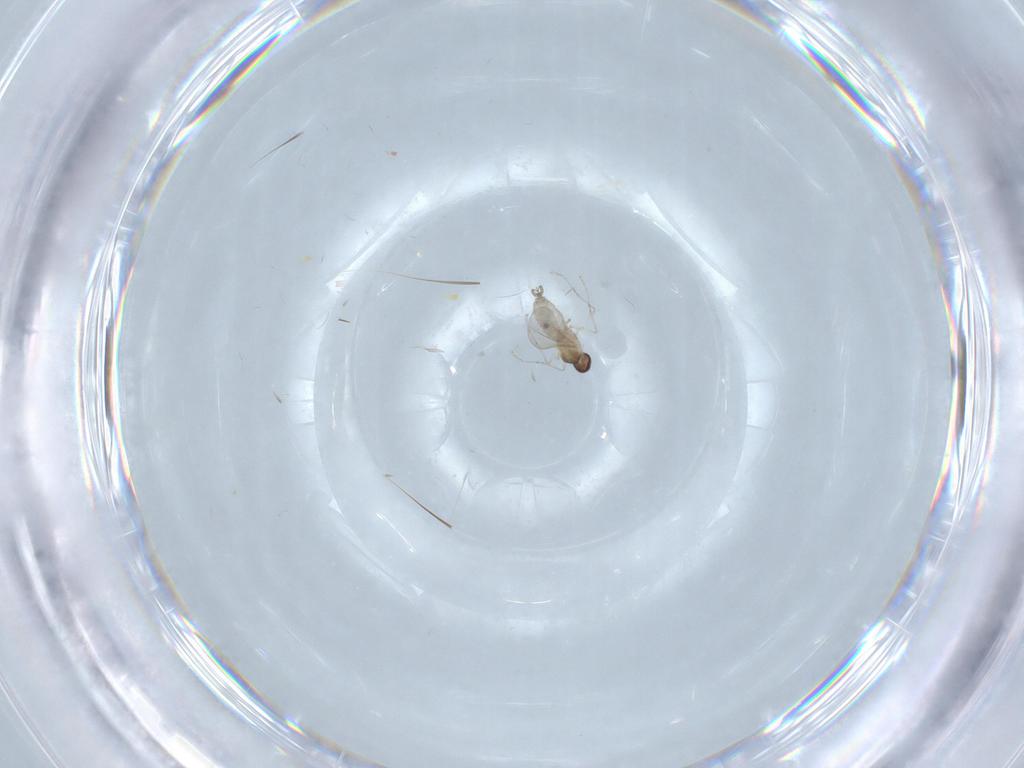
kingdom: Animalia
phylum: Arthropoda
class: Insecta
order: Diptera
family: Cecidomyiidae
